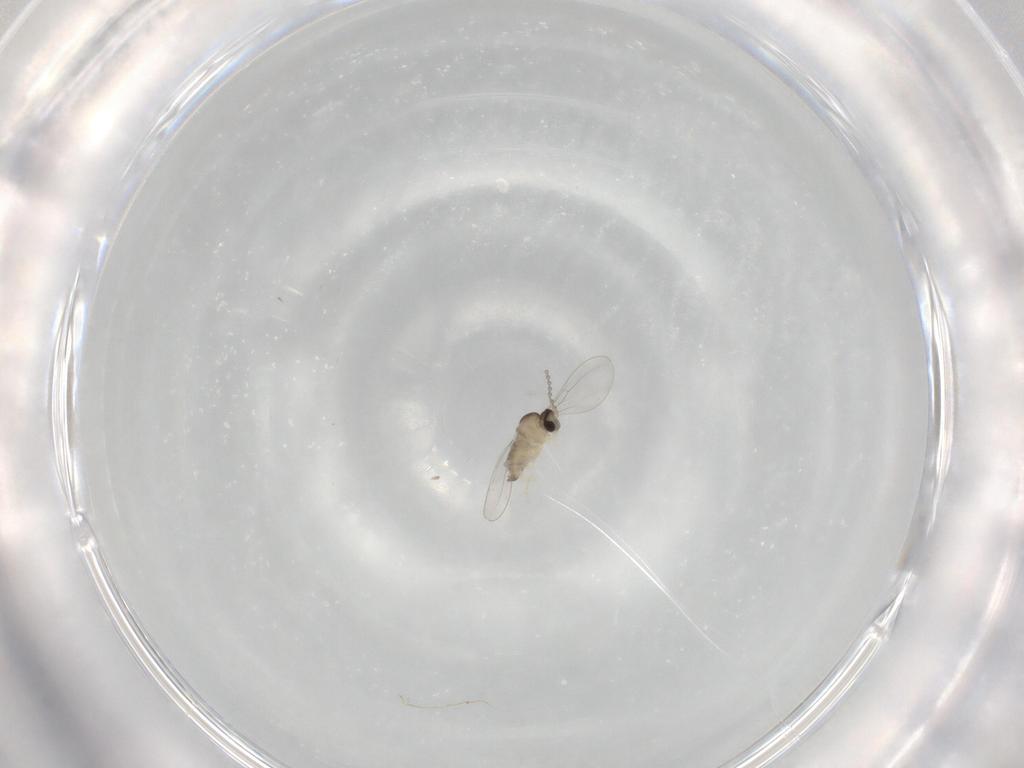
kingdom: Animalia
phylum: Arthropoda
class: Insecta
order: Diptera
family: Cecidomyiidae
